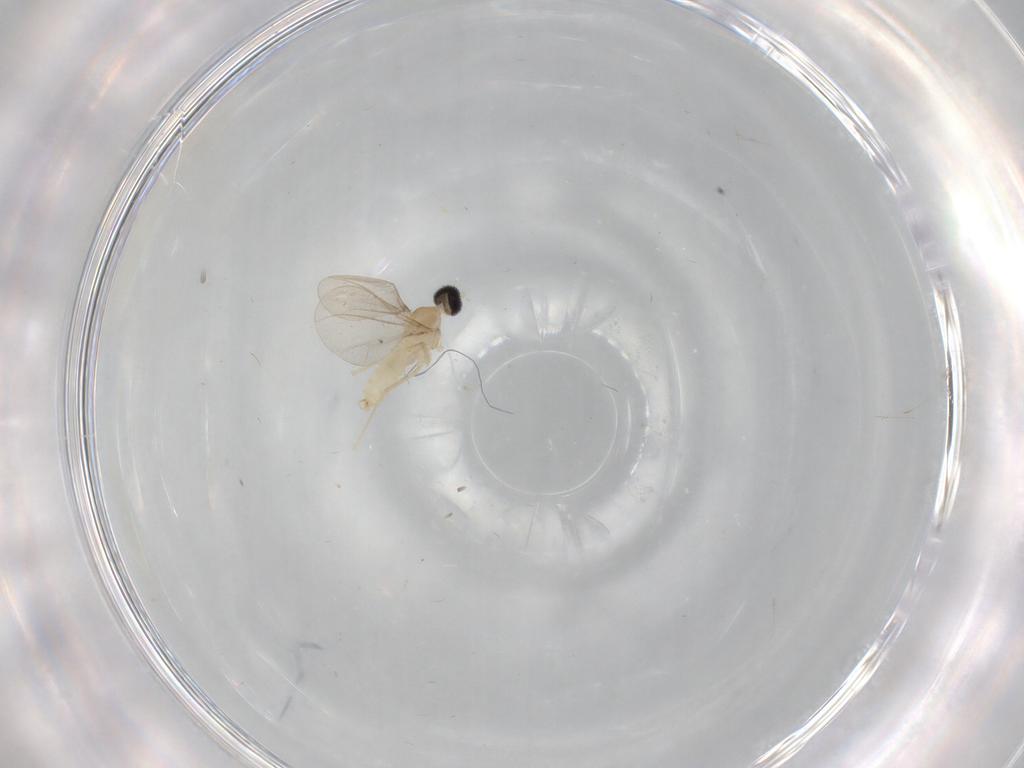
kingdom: Animalia
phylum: Arthropoda
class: Insecta
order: Diptera
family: Cecidomyiidae
